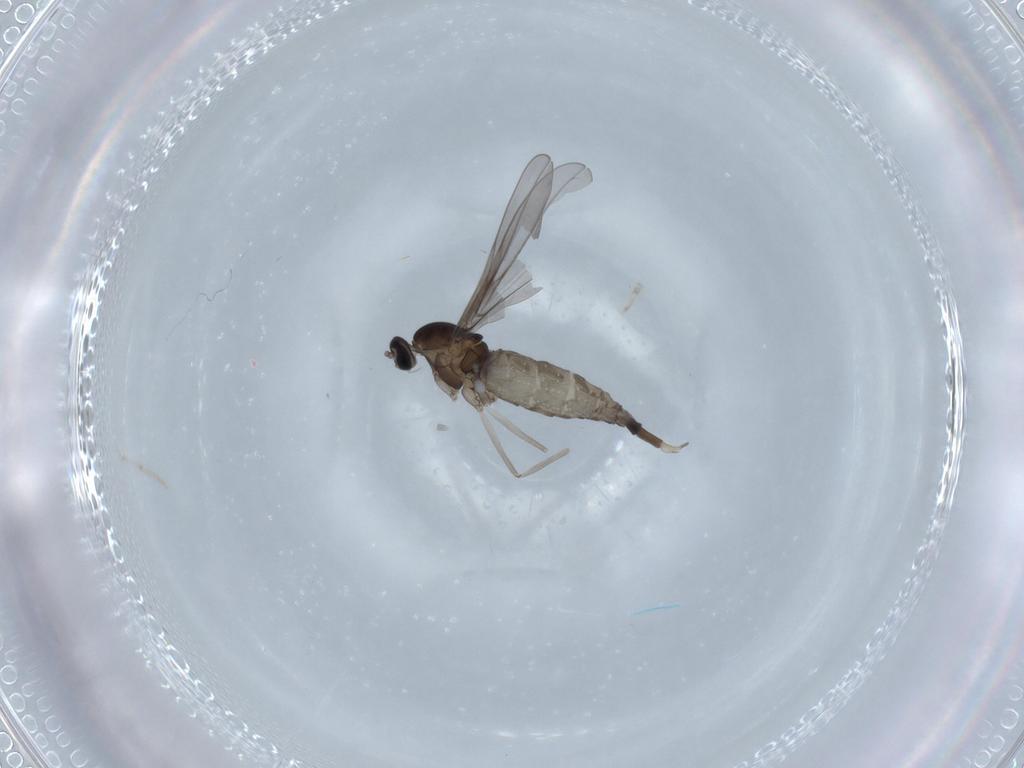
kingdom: Animalia
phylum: Arthropoda
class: Insecta
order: Diptera
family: Cecidomyiidae
